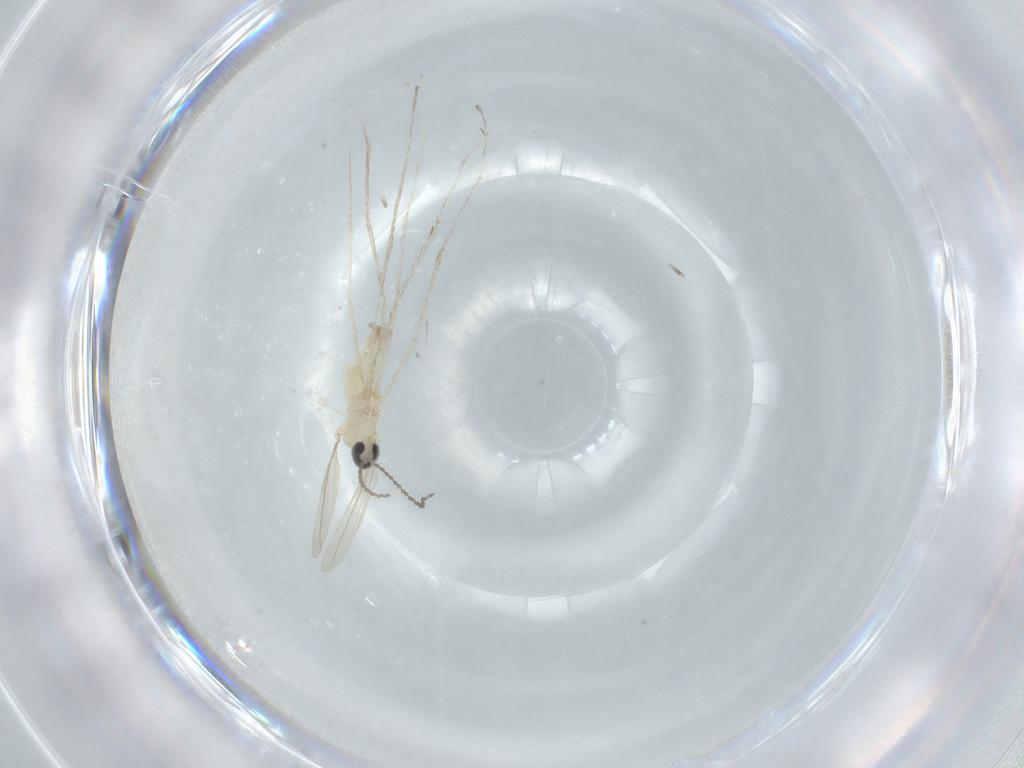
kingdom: Animalia
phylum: Arthropoda
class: Insecta
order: Diptera
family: Cecidomyiidae
